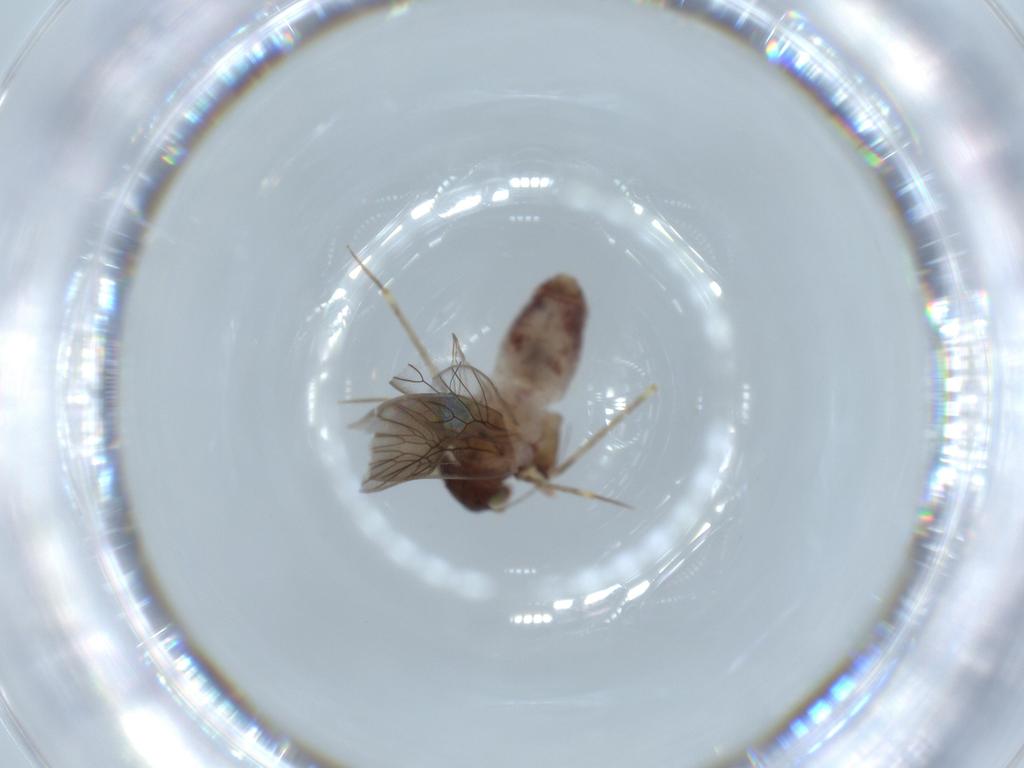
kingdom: Animalia
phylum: Arthropoda
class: Insecta
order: Psocodea
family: Lepidopsocidae
